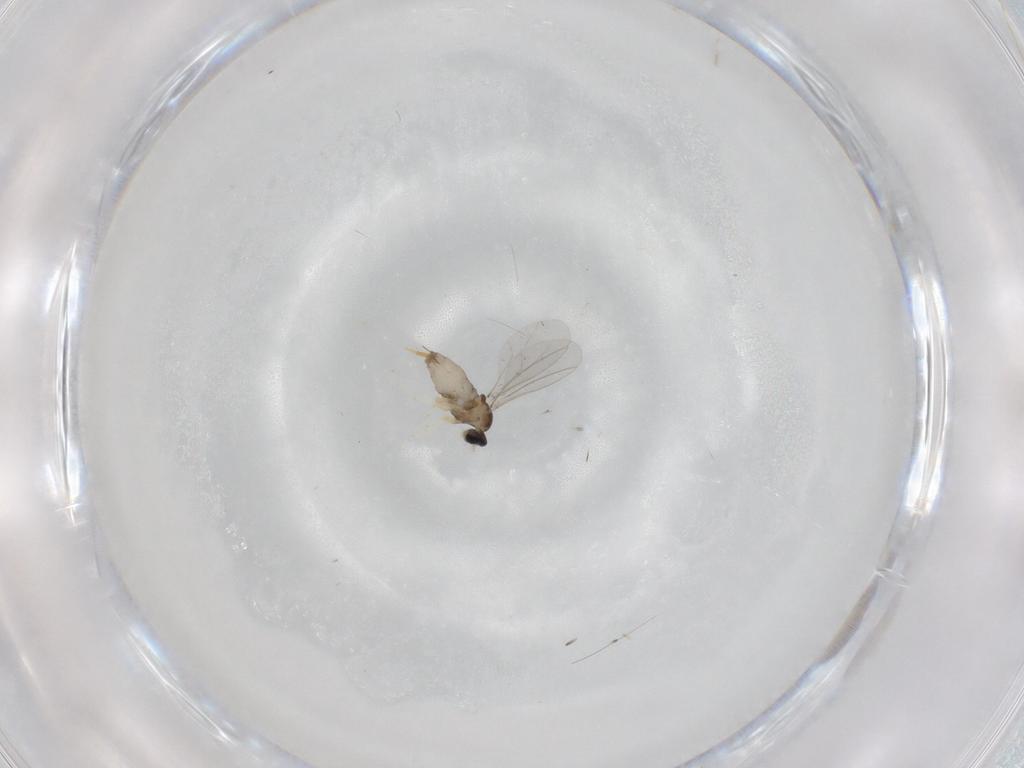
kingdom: Animalia
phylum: Arthropoda
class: Insecta
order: Diptera
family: Cecidomyiidae
